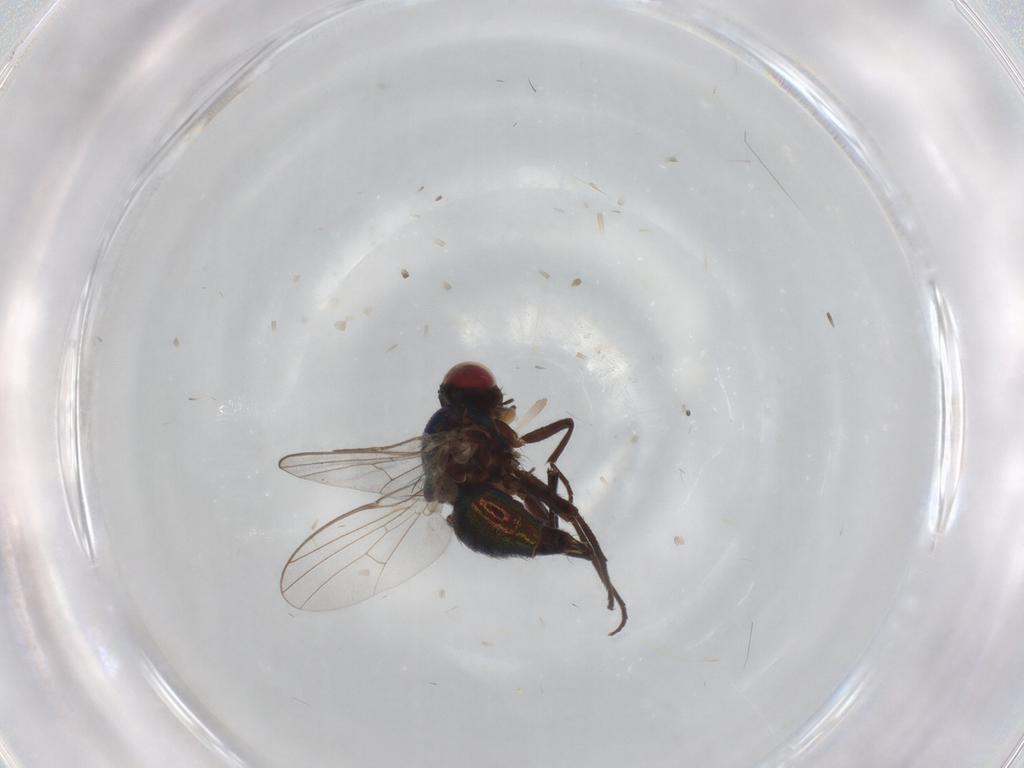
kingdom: Animalia
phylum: Arthropoda
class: Insecta
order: Diptera
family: Agromyzidae
